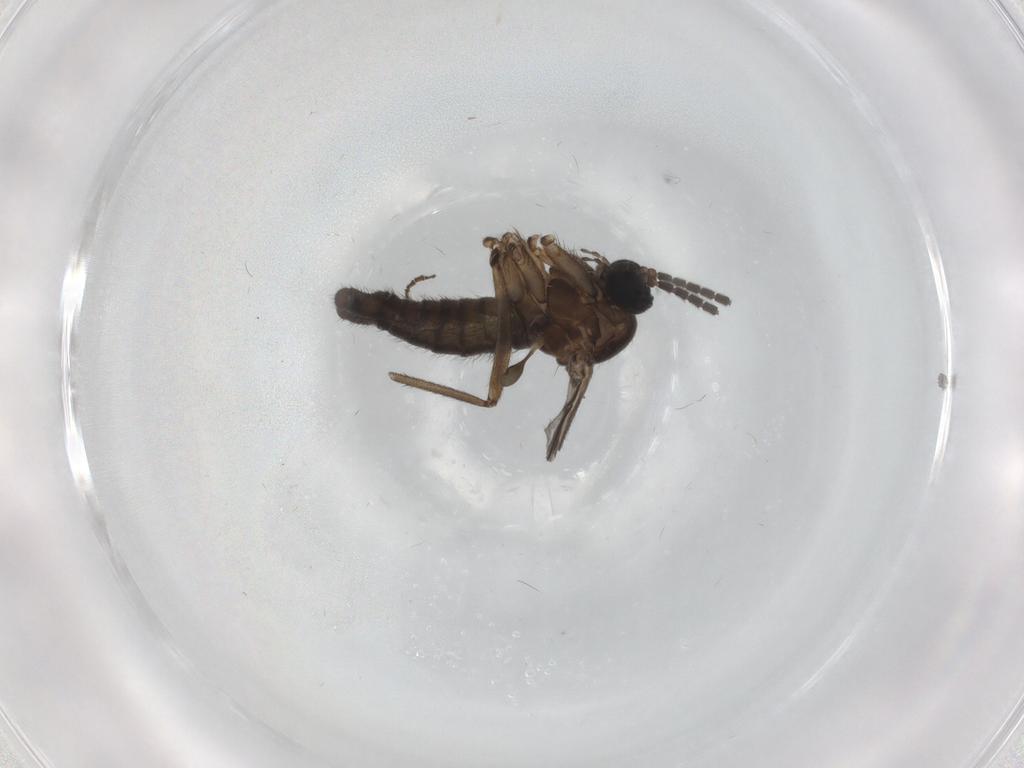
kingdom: Animalia
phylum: Arthropoda
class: Insecta
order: Diptera
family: Sciaridae
